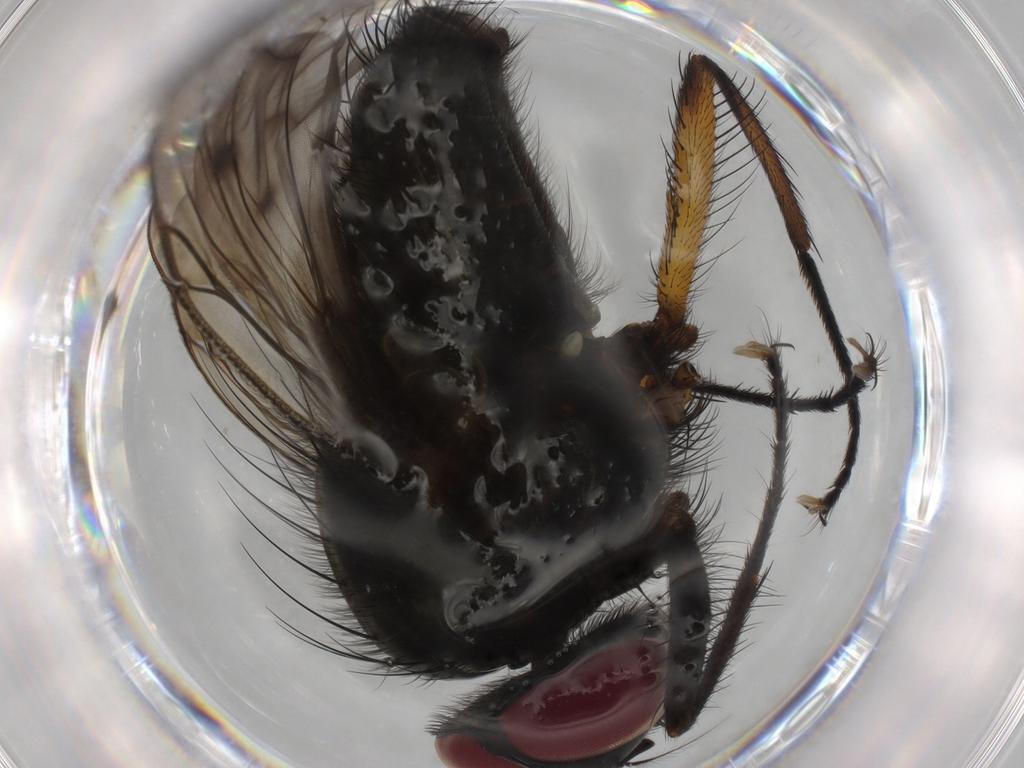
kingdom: Animalia
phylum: Arthropoda
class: Insecta
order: Diptera
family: Muscidae
